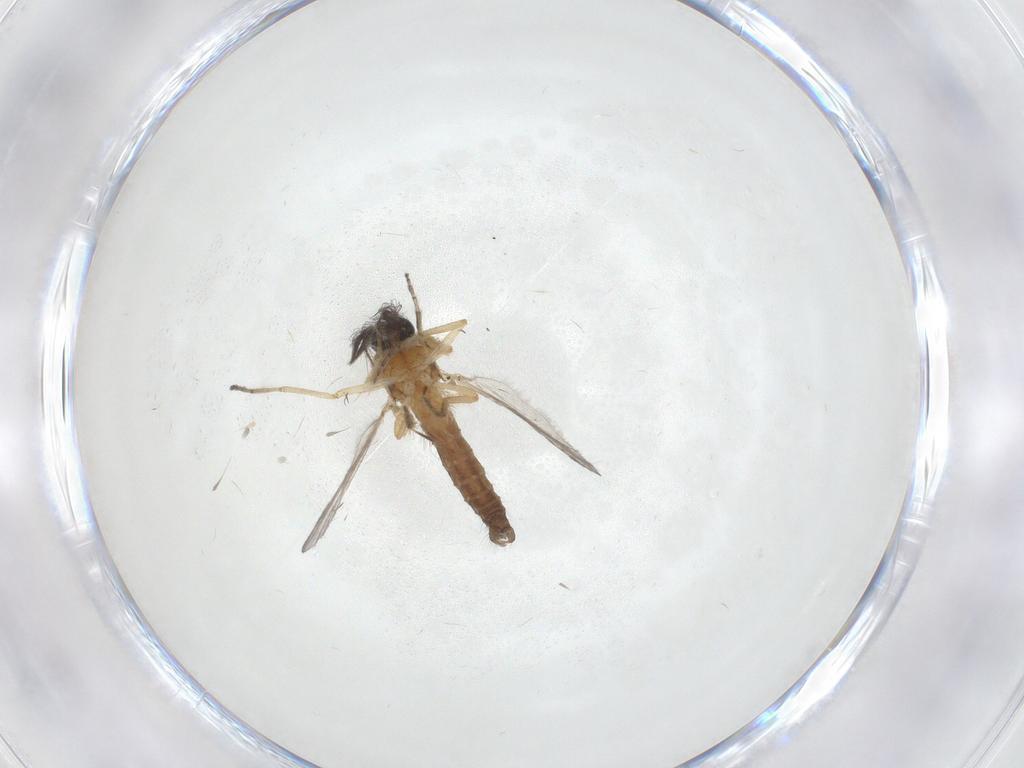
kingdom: Animalia
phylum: Arthropoda
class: Insecta
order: Diptera
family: Ceratopogonidae
